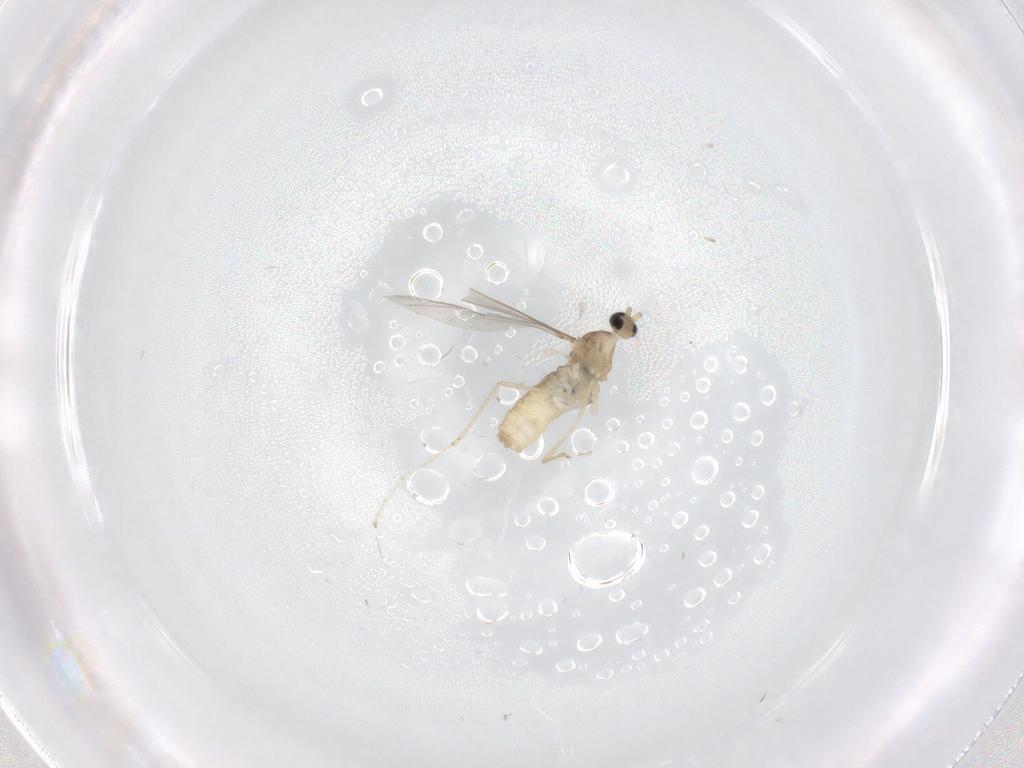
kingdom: Animalia
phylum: Arthropoda
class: Insecta
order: Diptera
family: Cecidomyiidae
